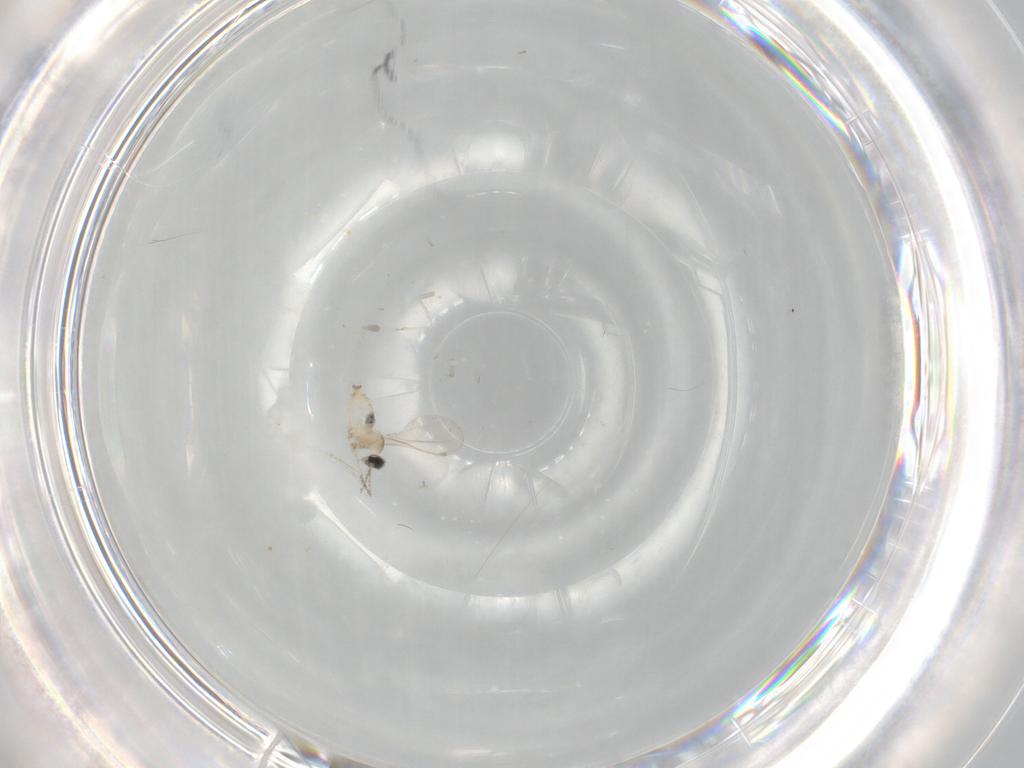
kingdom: Animalia
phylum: Arthropoda
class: Insecta
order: Diptera
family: Cecidomyiidae
